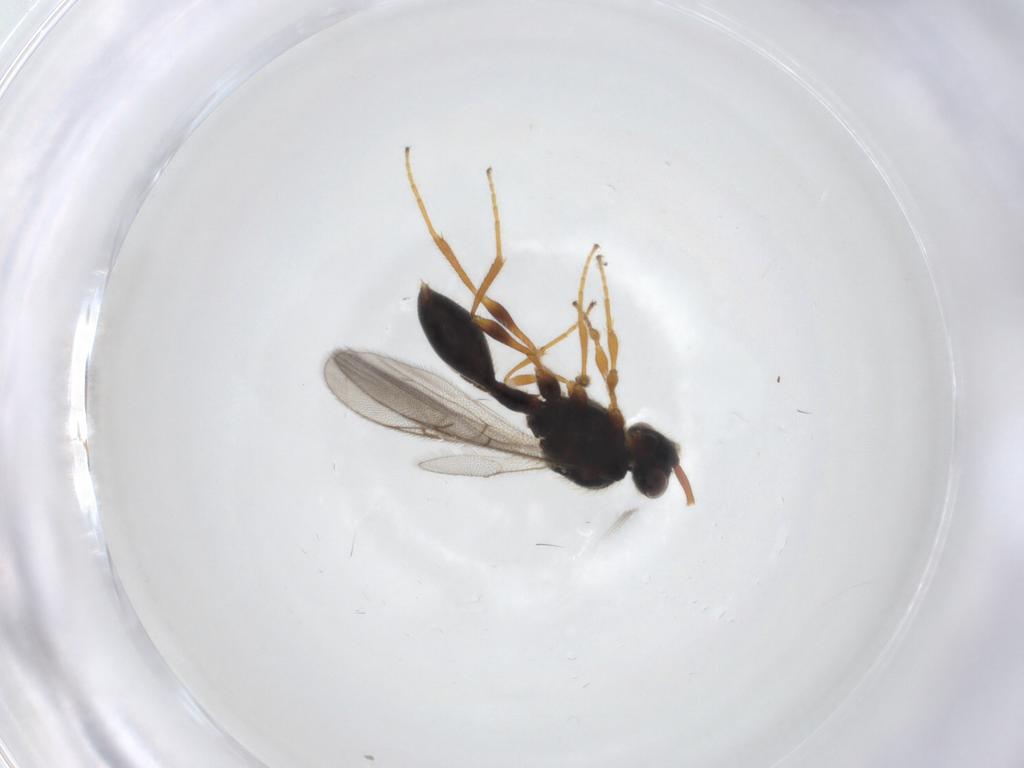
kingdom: Animalia
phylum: Arthropoda
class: Insecta
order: Hymenoptera
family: Diapriidae
